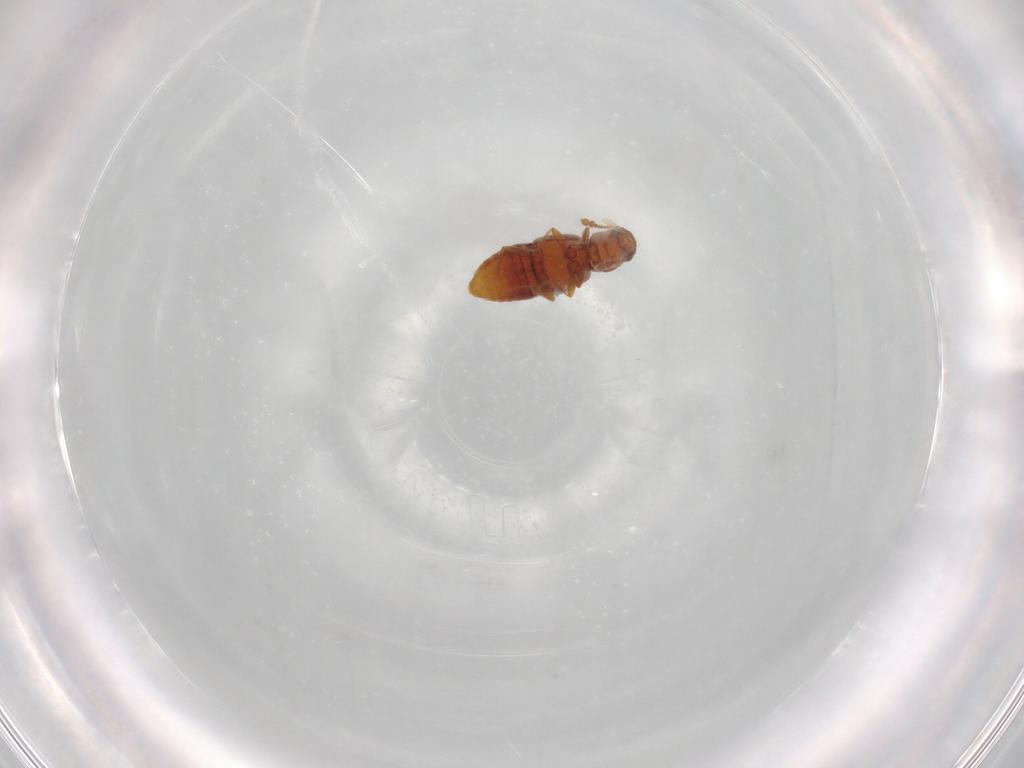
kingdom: Animalia
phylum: Arthropoda
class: Insecta
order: Coleoptera
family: Staphylinidae
